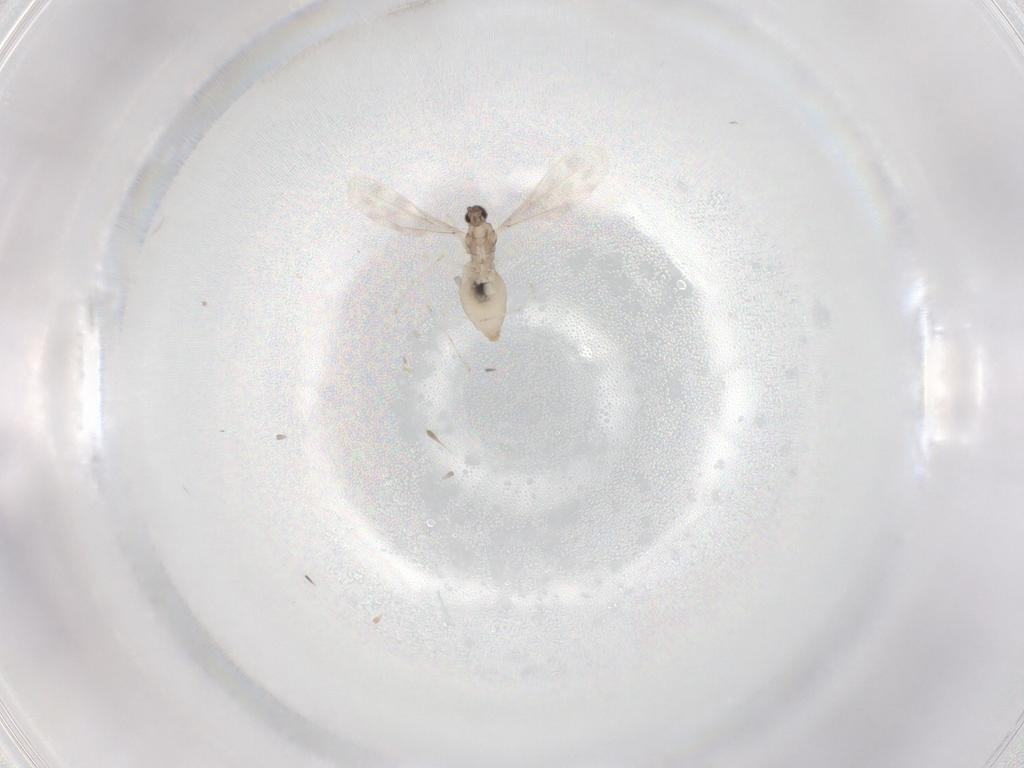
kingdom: Animalia
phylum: Arthropoda
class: Insecta
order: Diptera
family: Cecidomyiidae
